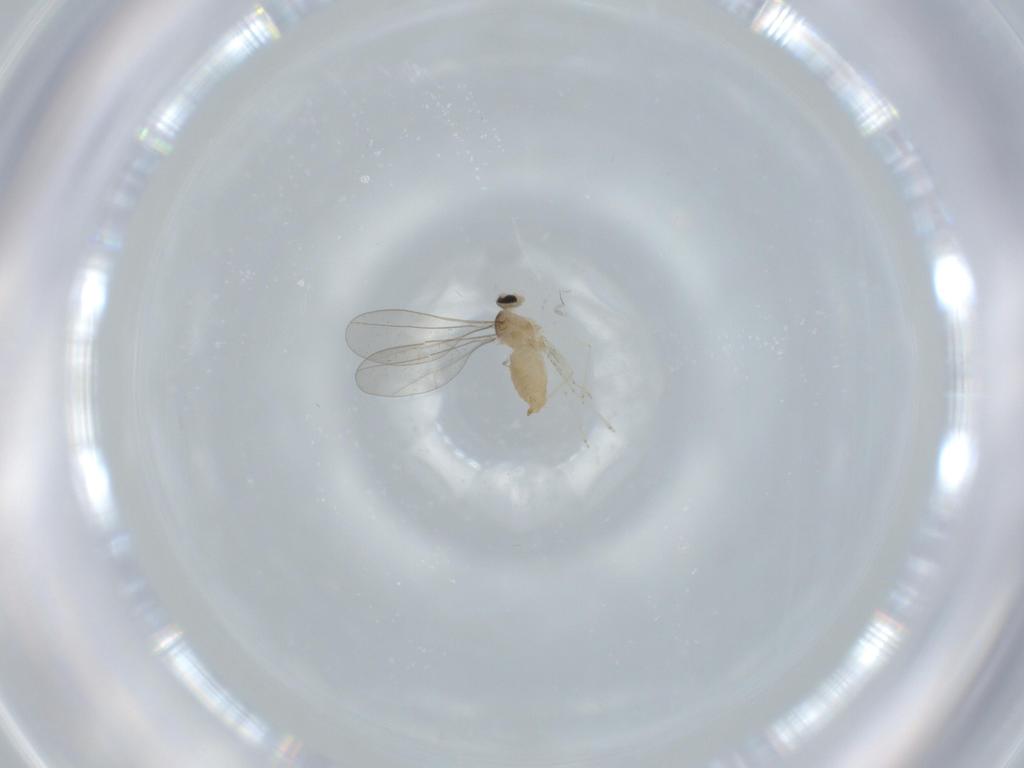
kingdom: Animalia
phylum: Arthropoda
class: Insecta
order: Diptera
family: Cecidomyiidae
